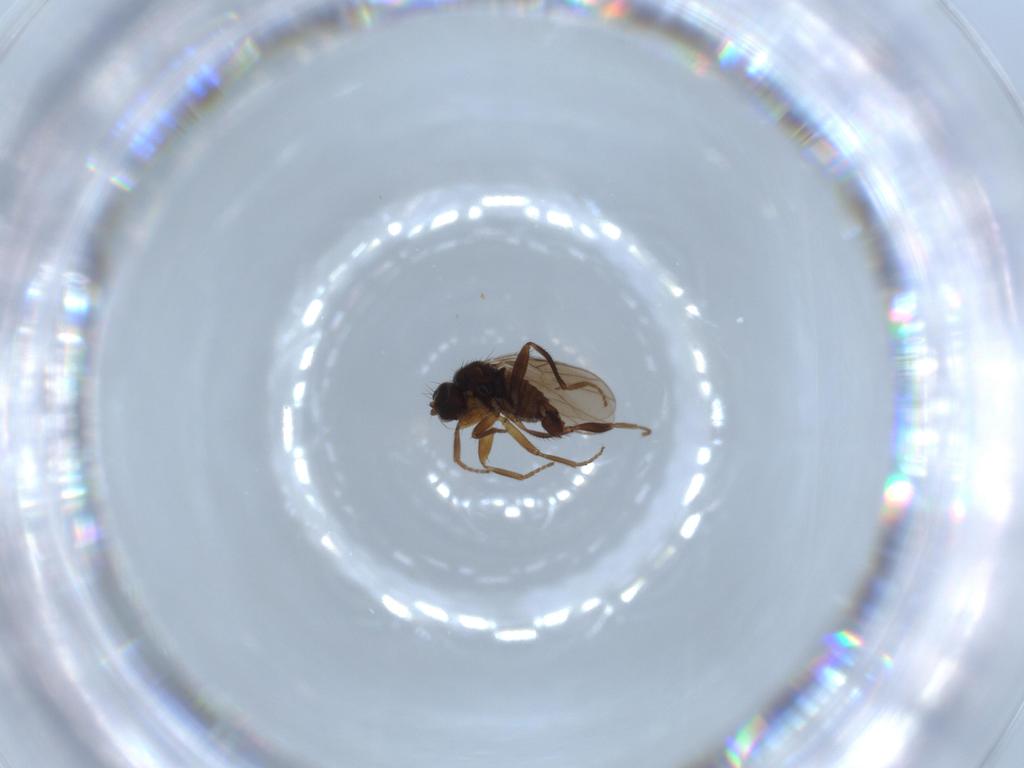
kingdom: Animalia
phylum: Arthropoda
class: Insecta
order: Diptera
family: Hybotidae
